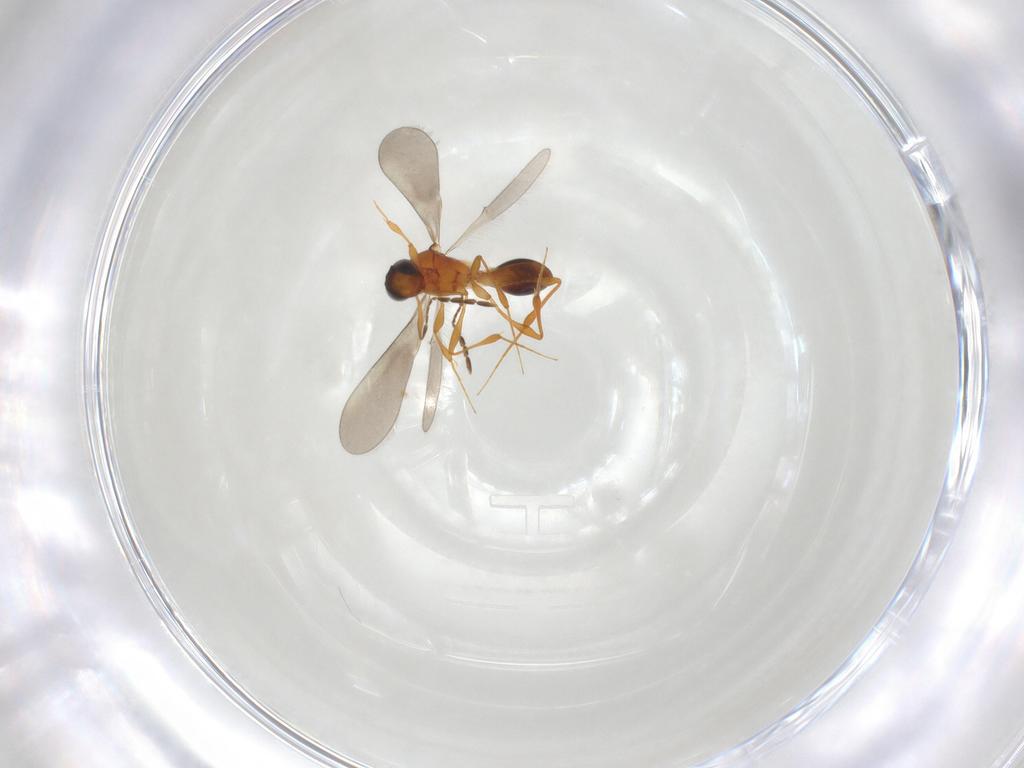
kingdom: Animalia
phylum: Arthropoda
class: Insecta
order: Hymenoptera
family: Platygastridae
